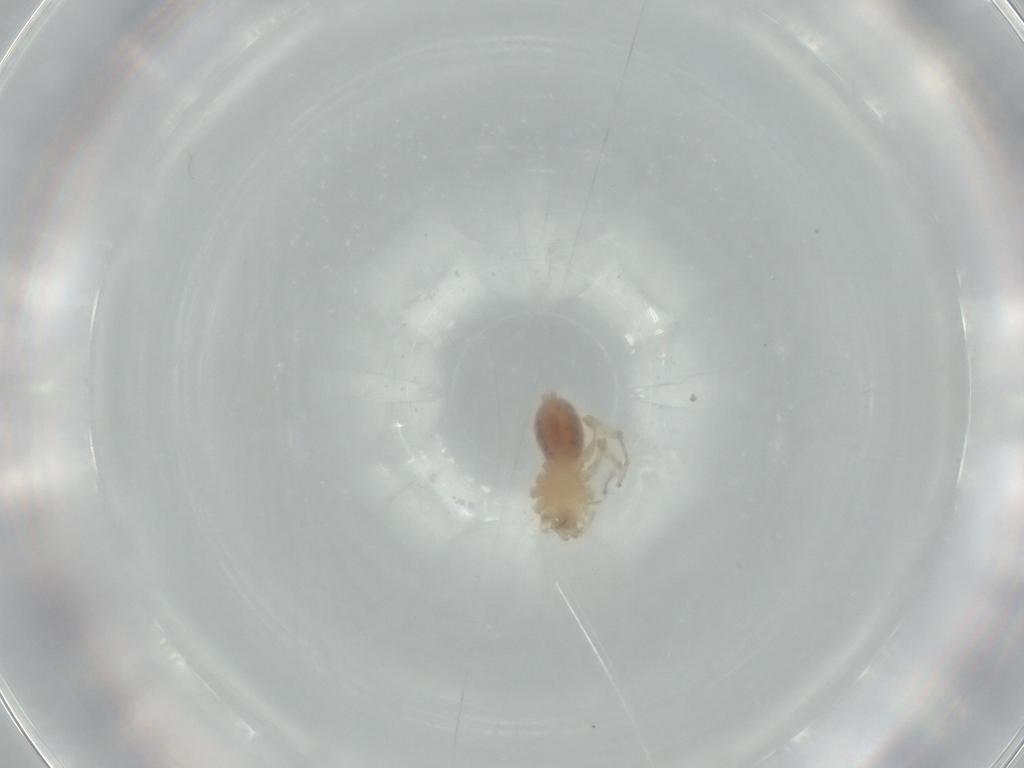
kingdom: Animalia
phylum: Arthropoda
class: Arachnida
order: Araneae
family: Oonopidae
